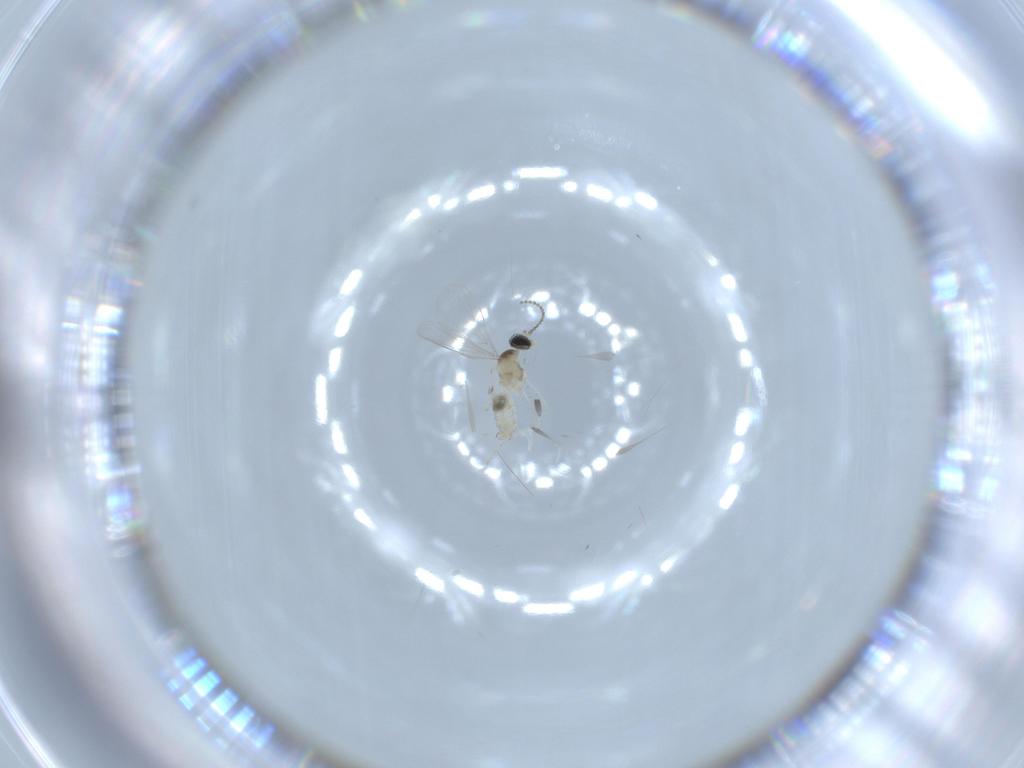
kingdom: Animalia
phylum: Arthropoda
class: Insecta
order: Diptera
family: Cecidomyiidae
